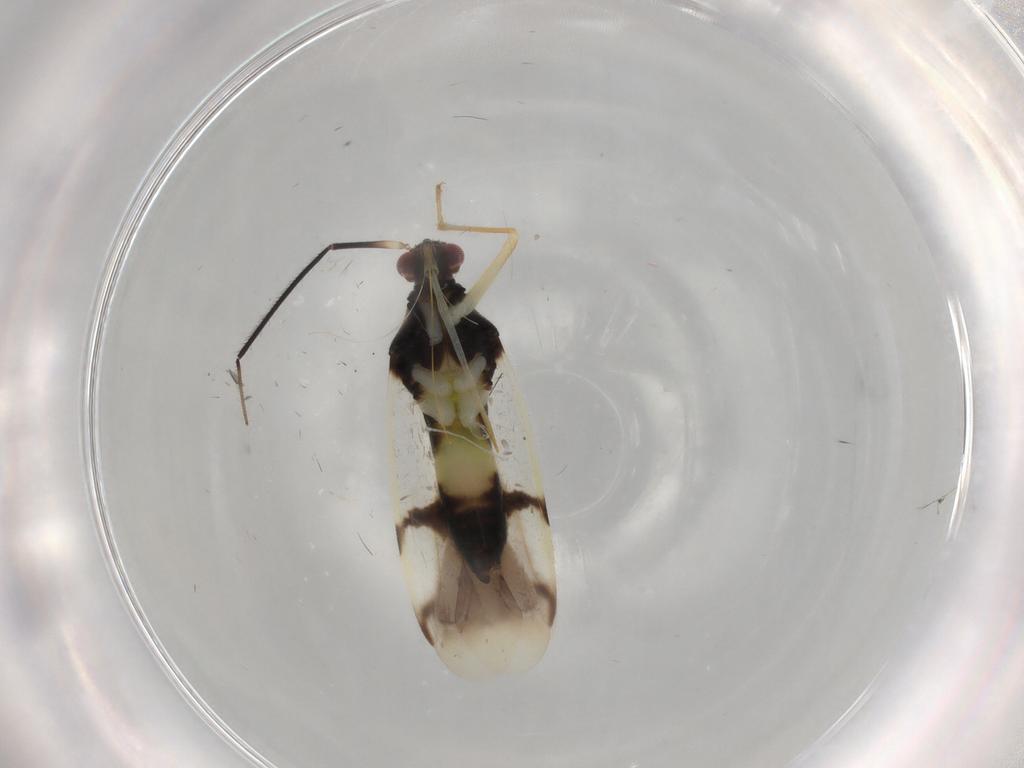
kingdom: Animalia
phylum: Arthropoda
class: Insecta
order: Hemiptera
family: Miridae
